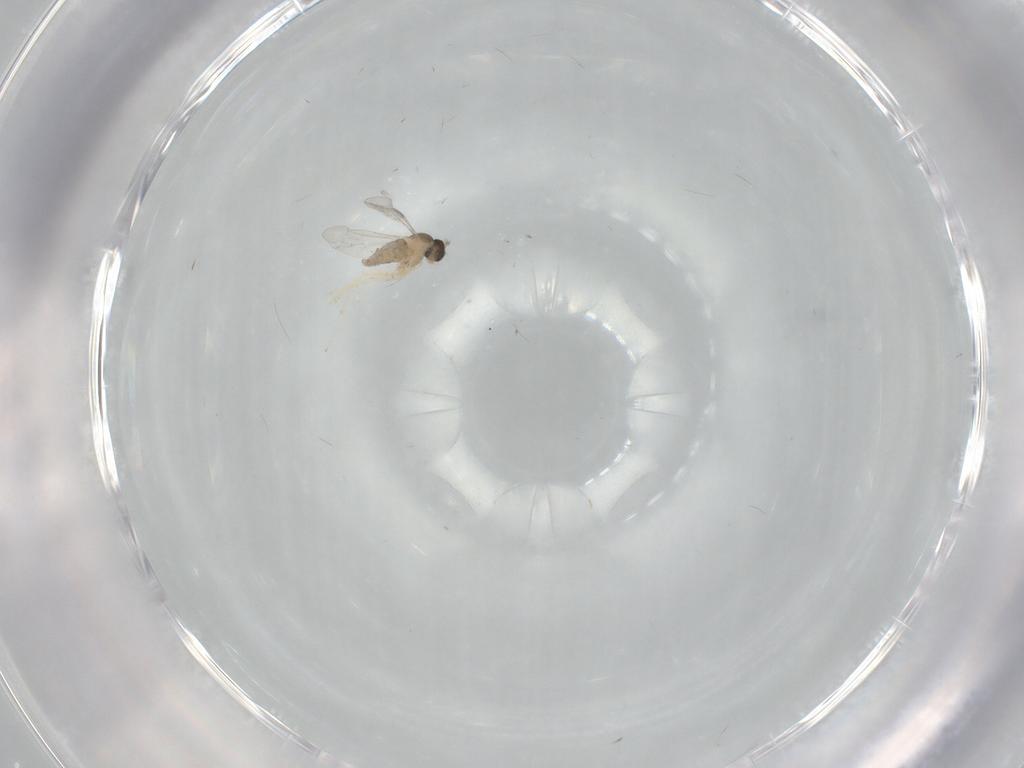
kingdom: Animalia
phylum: Arthropoda
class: Insecta
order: Diptera
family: Cecidomyiidae
